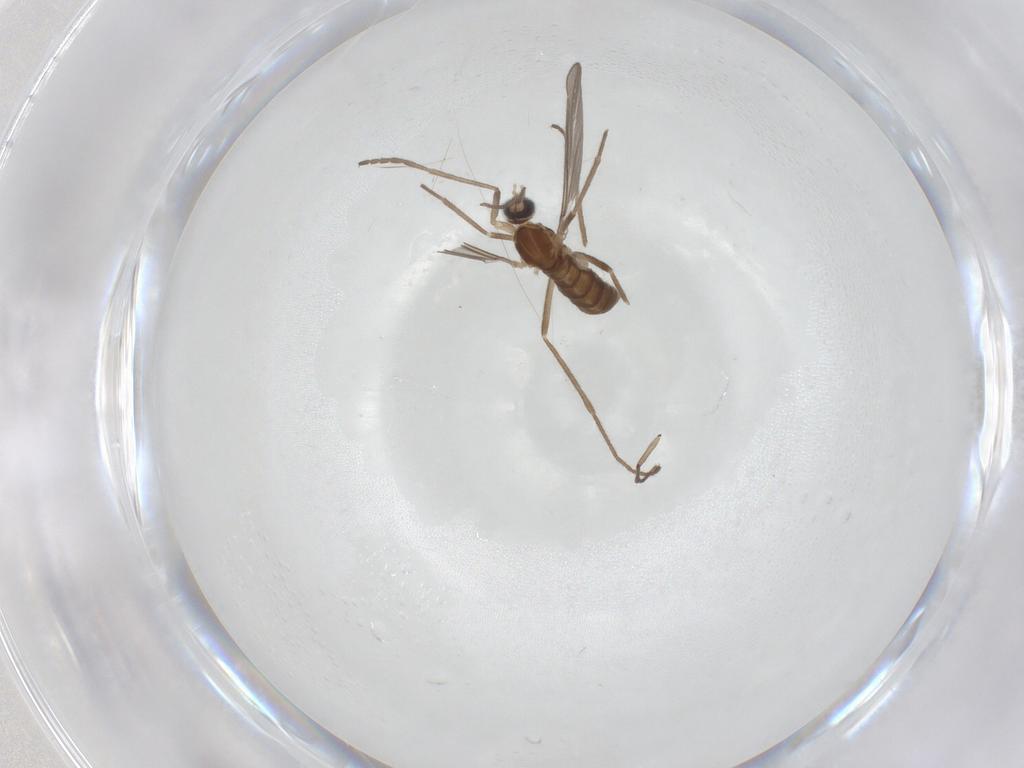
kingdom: Animalia
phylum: Arthropoda
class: Insecta
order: Diptera
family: Cecidomyiidae
